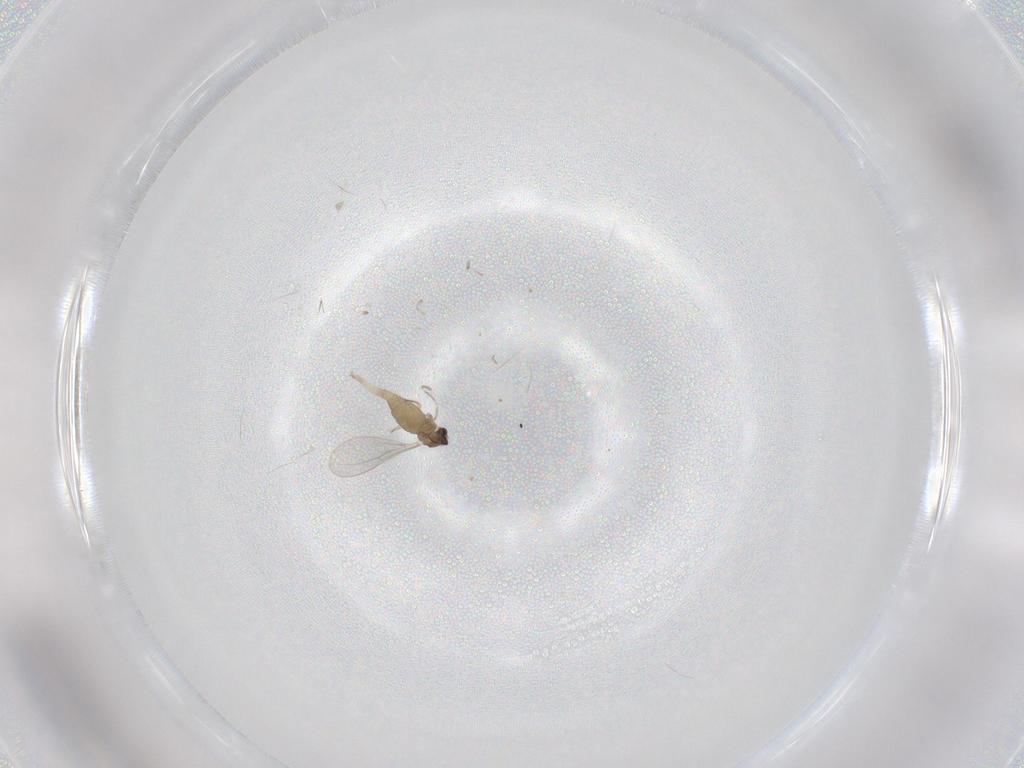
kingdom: Animalia
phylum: Arthropoda
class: Insecta
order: Diptera
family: Cecidomyiidae
